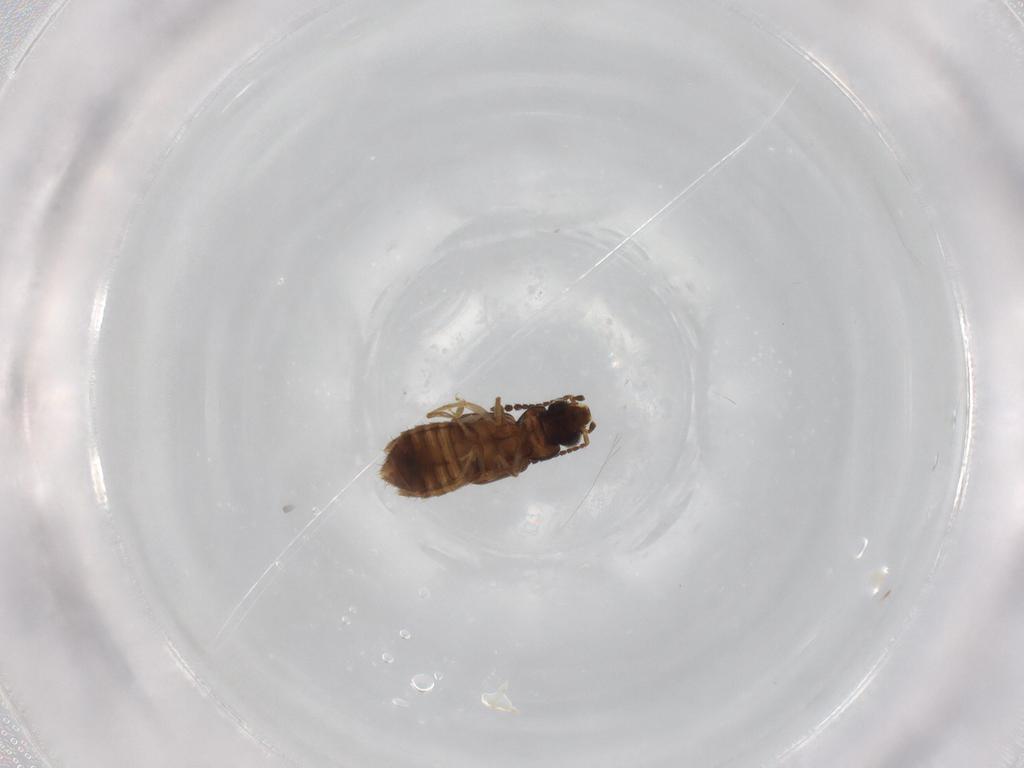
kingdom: Animalia
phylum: Arthropoda
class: Insecta
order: Coleoptera
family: Staphylinidae
